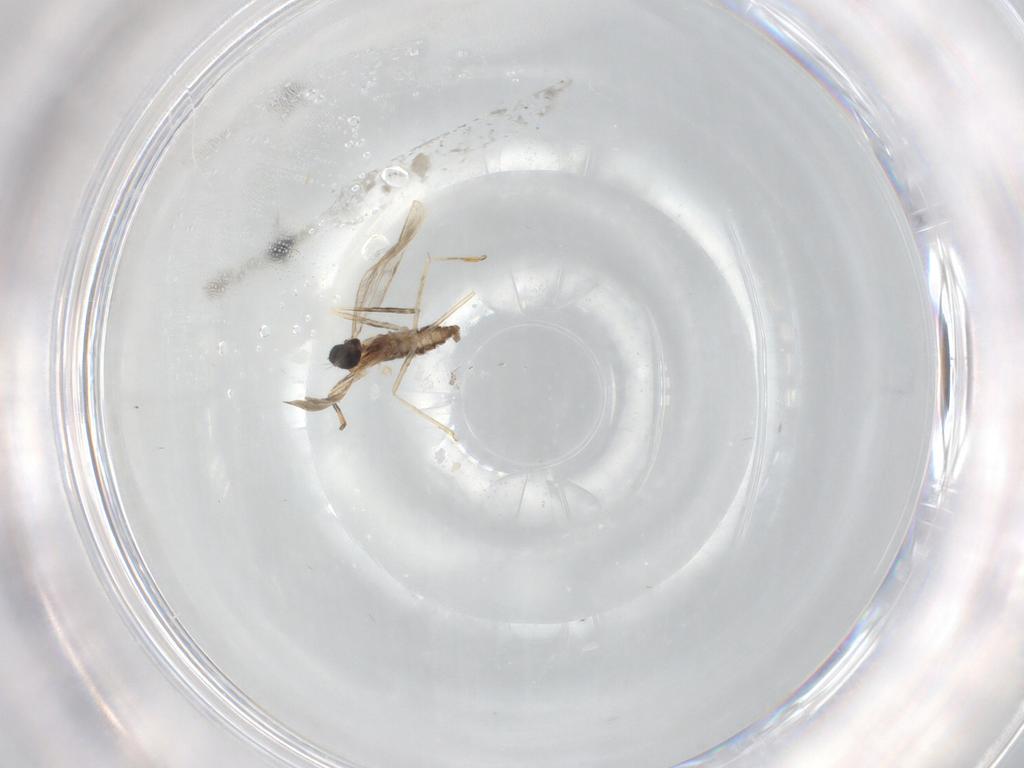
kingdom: Animalia
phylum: Arthropoda
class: Insecta
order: Diptera
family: Cecidomyiidae
